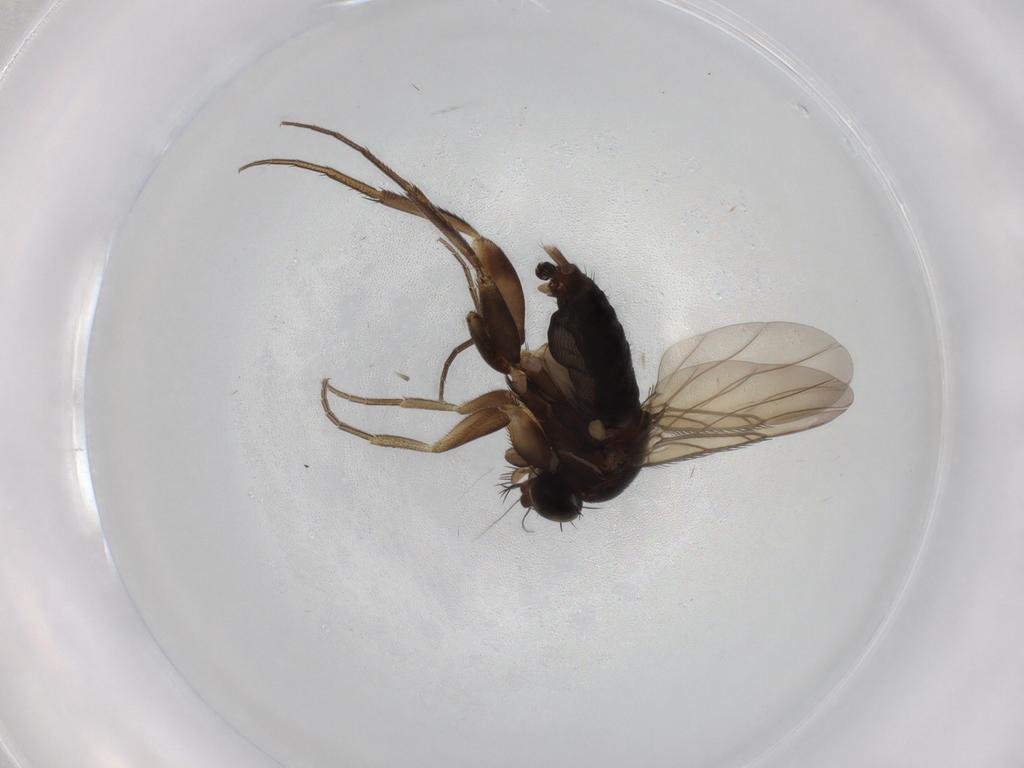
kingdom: Animalia
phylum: Arthropoda
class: Insecta
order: Diptera
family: Phoridae
